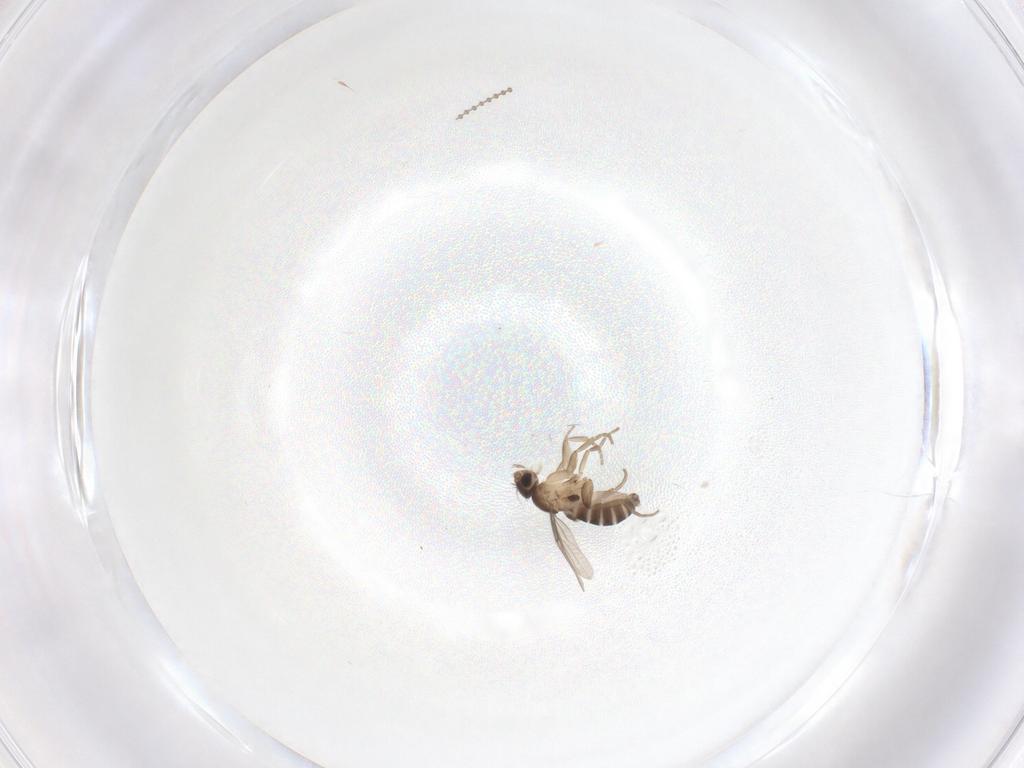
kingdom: Animalia
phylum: Arthropoda
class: Insecta
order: Diptera
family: Phoridae
